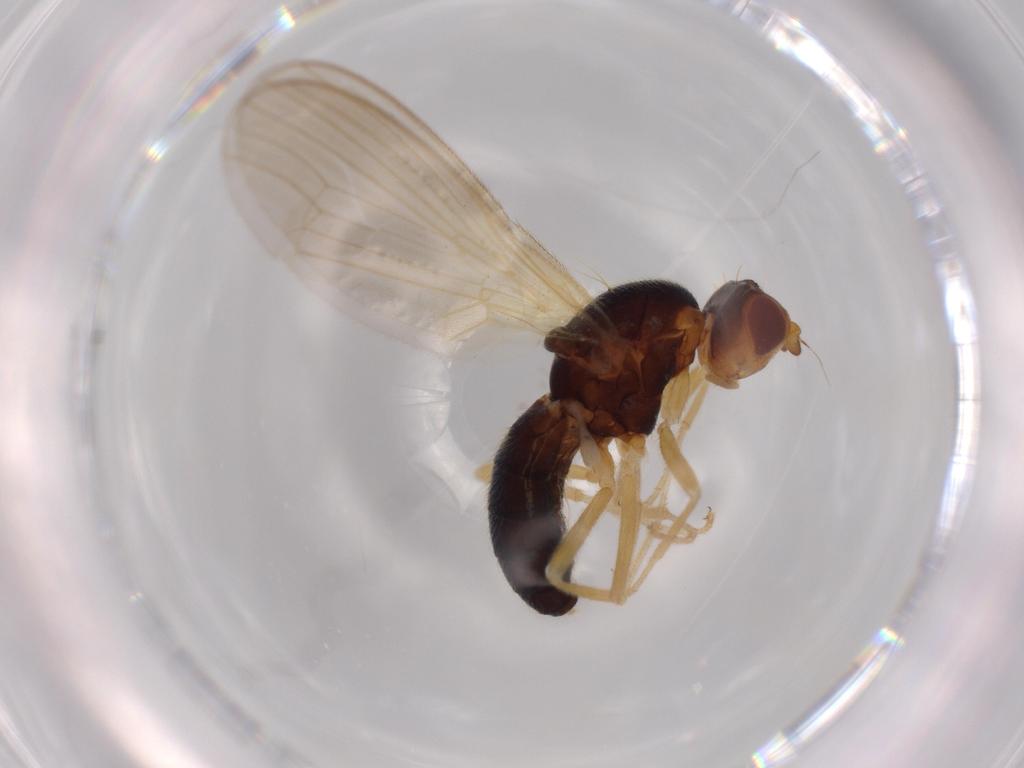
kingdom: Animalia
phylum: Arthropoda
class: Insecta
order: Diptera
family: Psilidae
